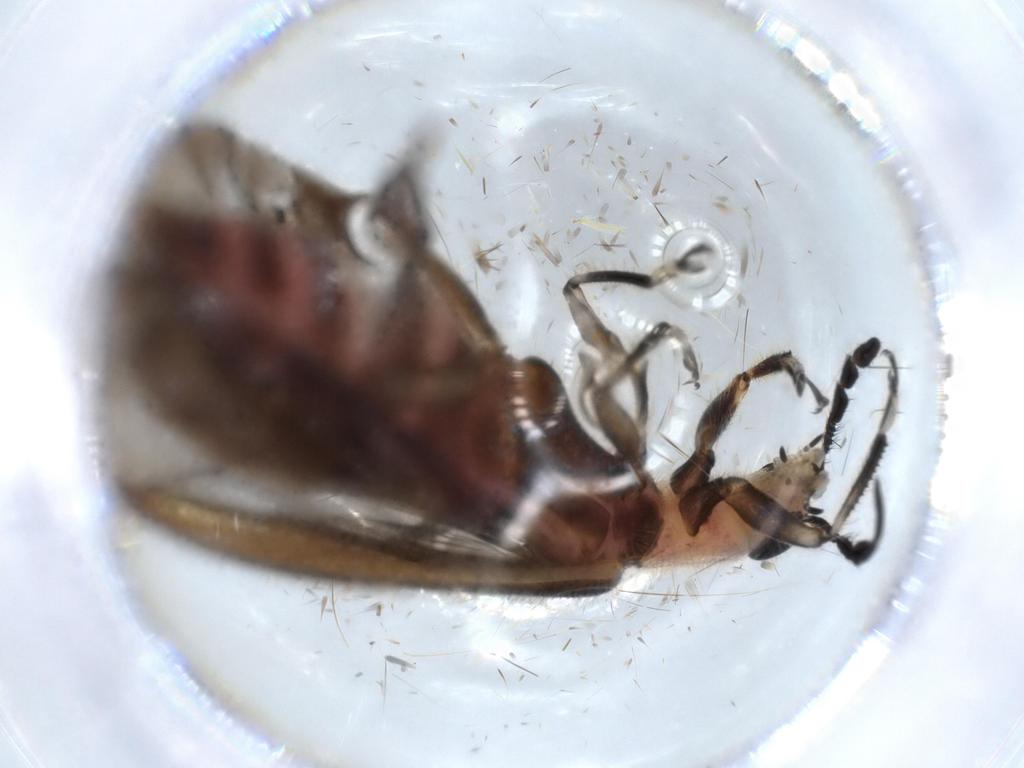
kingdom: Animalia
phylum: Arthropoda
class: Insecta
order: Coleoptera
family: Cleridae
